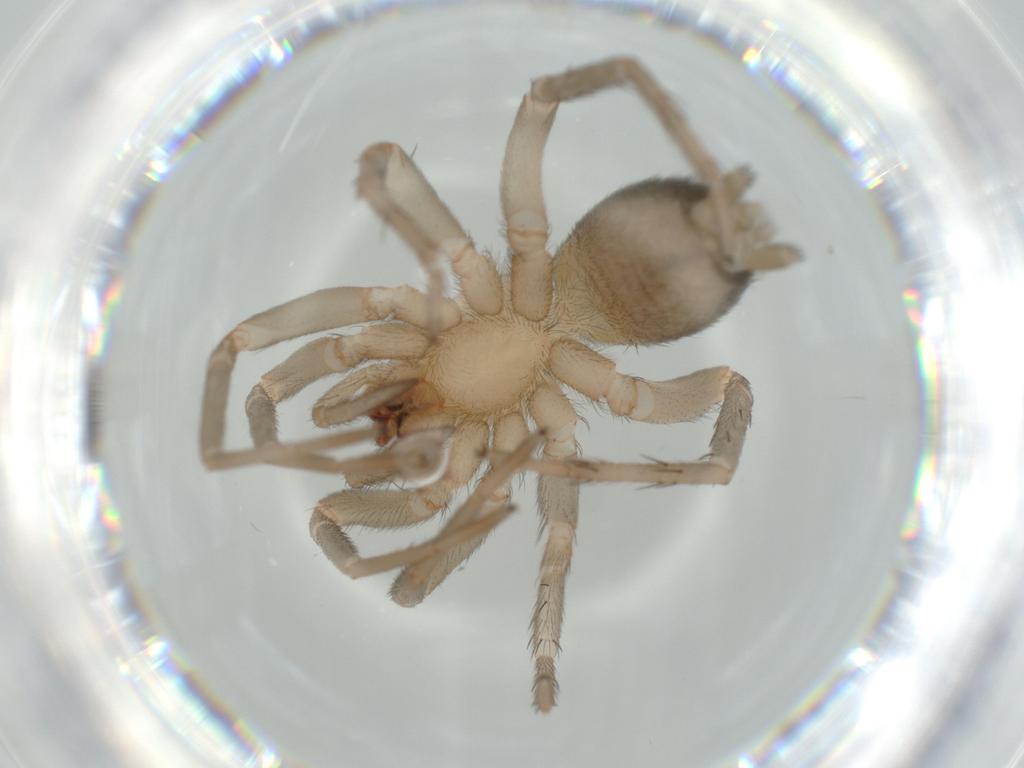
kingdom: Animalia
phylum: Arthropoda
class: Arachnida
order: Araneae
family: Gnaphosidae
